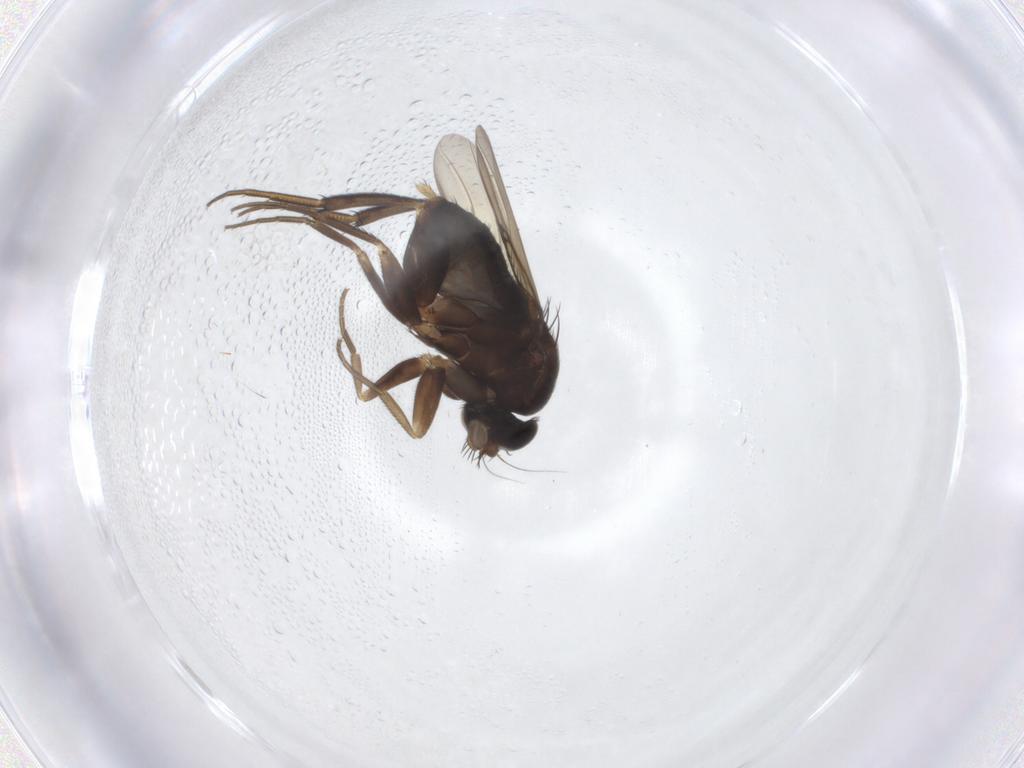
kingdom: Animalia
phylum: Arthropoda
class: Insecta
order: Diptera
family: Phoridae
